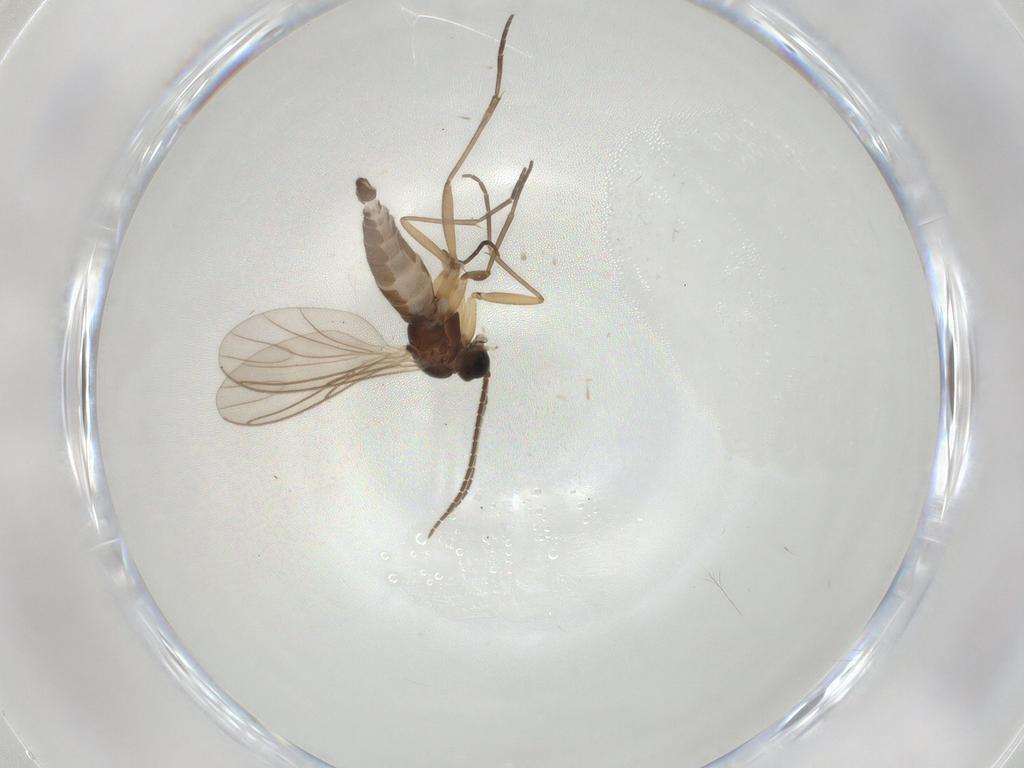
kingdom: Animalia
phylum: Arthropoda
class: Insecta
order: Diptera
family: Sciaridae
